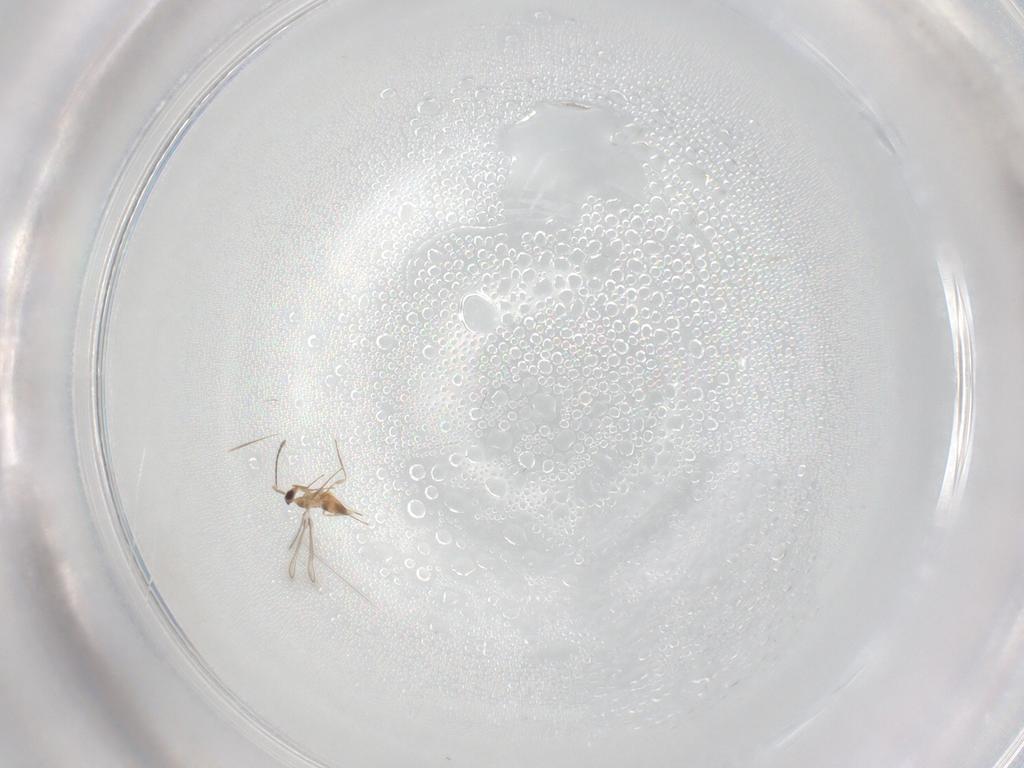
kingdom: Animalia
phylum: Arthropoda
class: Insecta
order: Hymenoptera
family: Mymaridae
